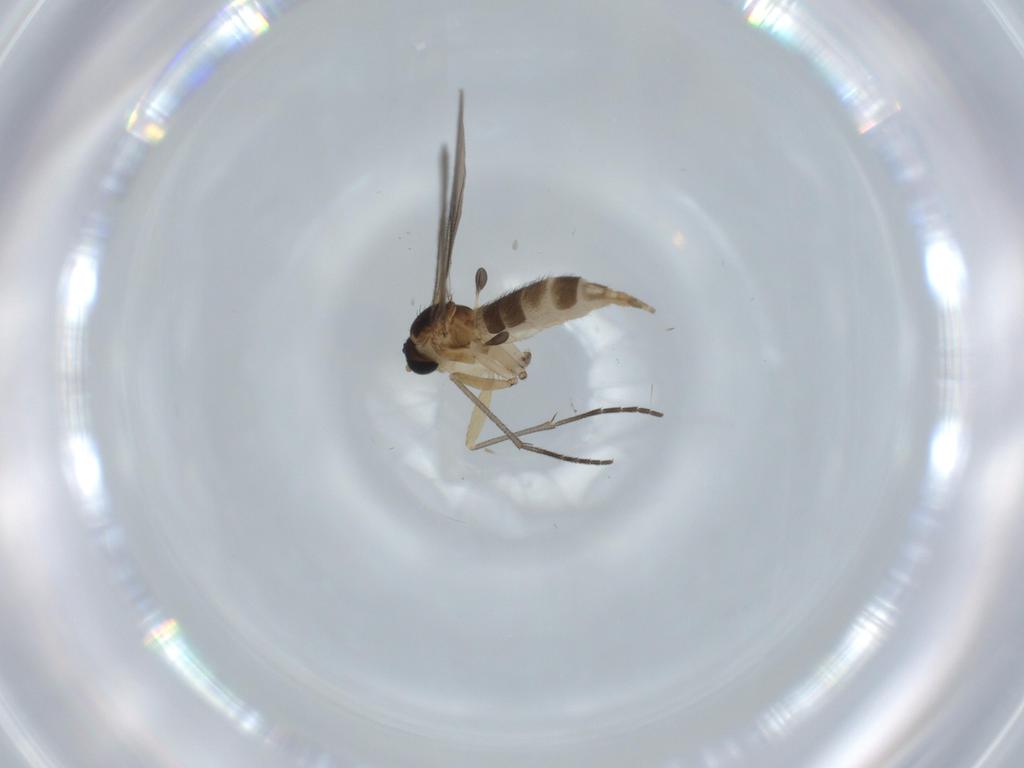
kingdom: Animalia
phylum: Arthropoda
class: Insecta
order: Diptera
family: Sciaridae
